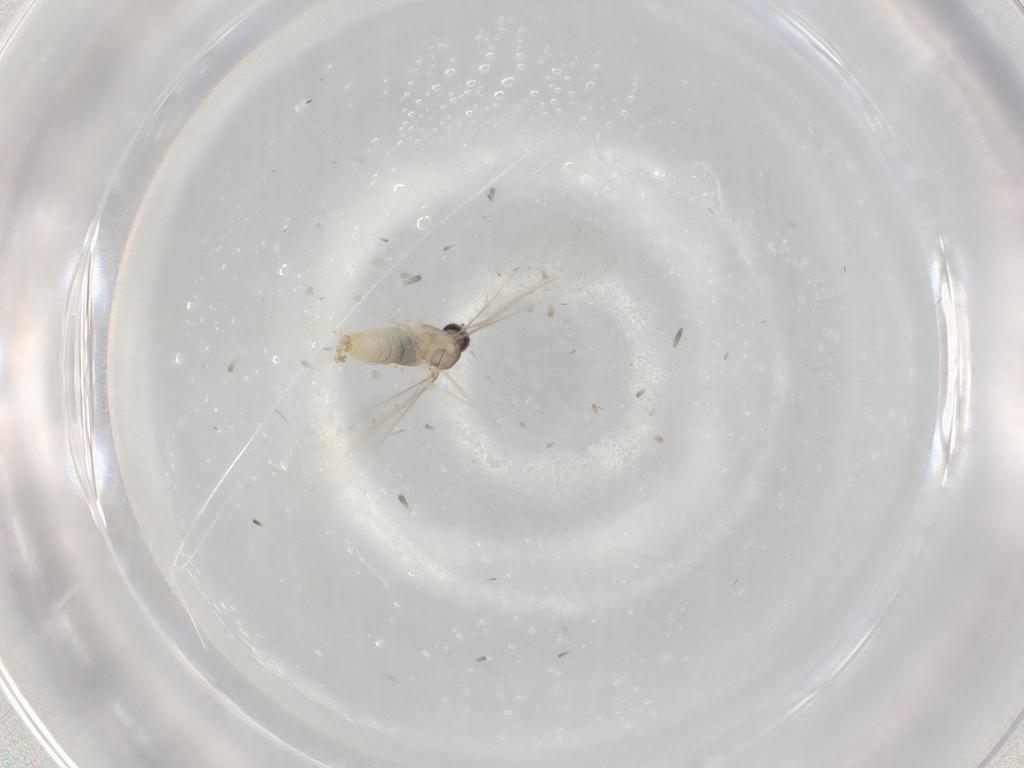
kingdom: Animalia
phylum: Arthropoda
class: Insecta
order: Diptera
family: Cecidomyiidae
